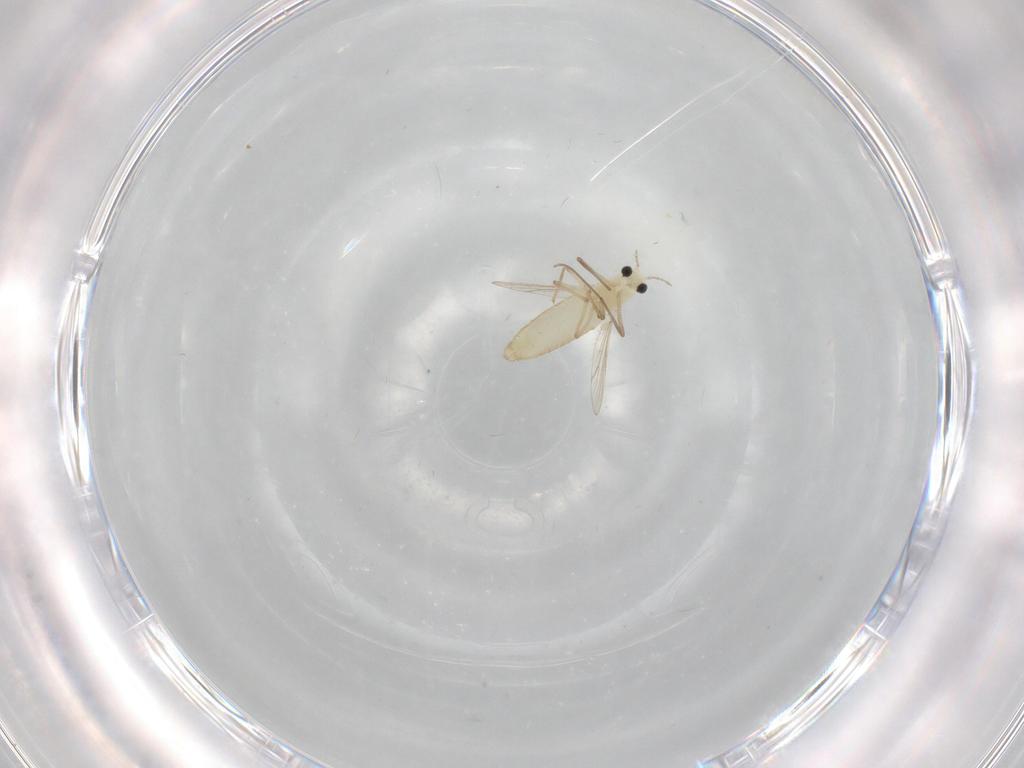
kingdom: Animalia
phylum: Arthropoda
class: Insecta
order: Diptera
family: Chironomidae
